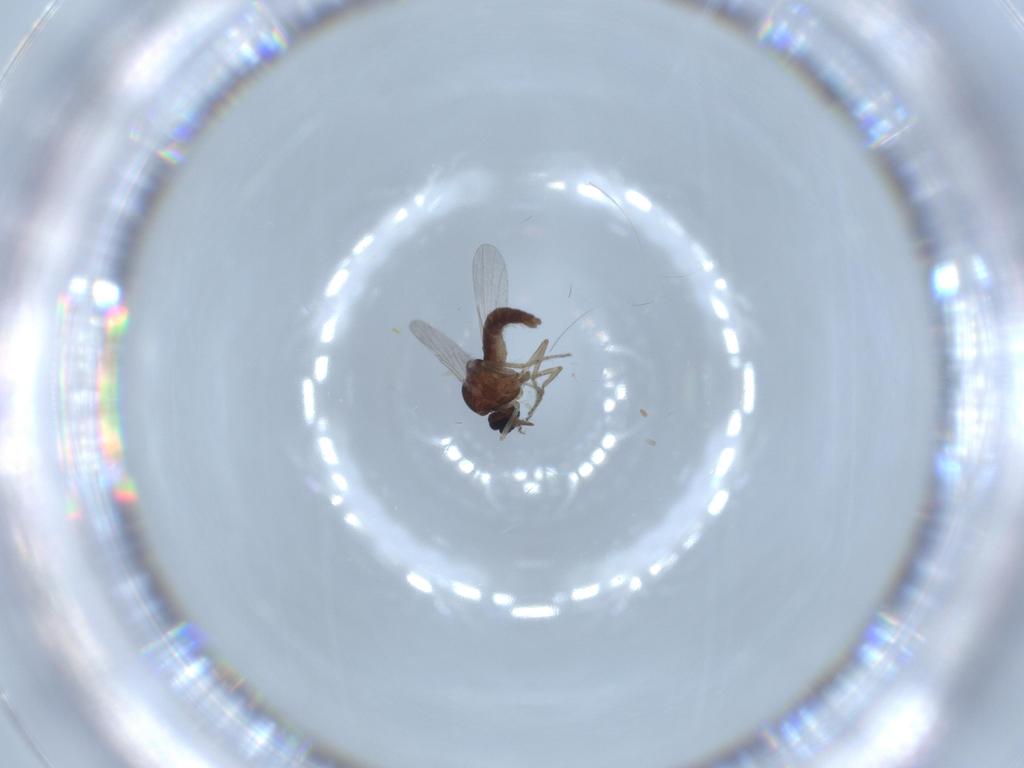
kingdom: Animalia
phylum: Arthropoda
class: Insecta
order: Diptera
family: Ceratopogonidae
